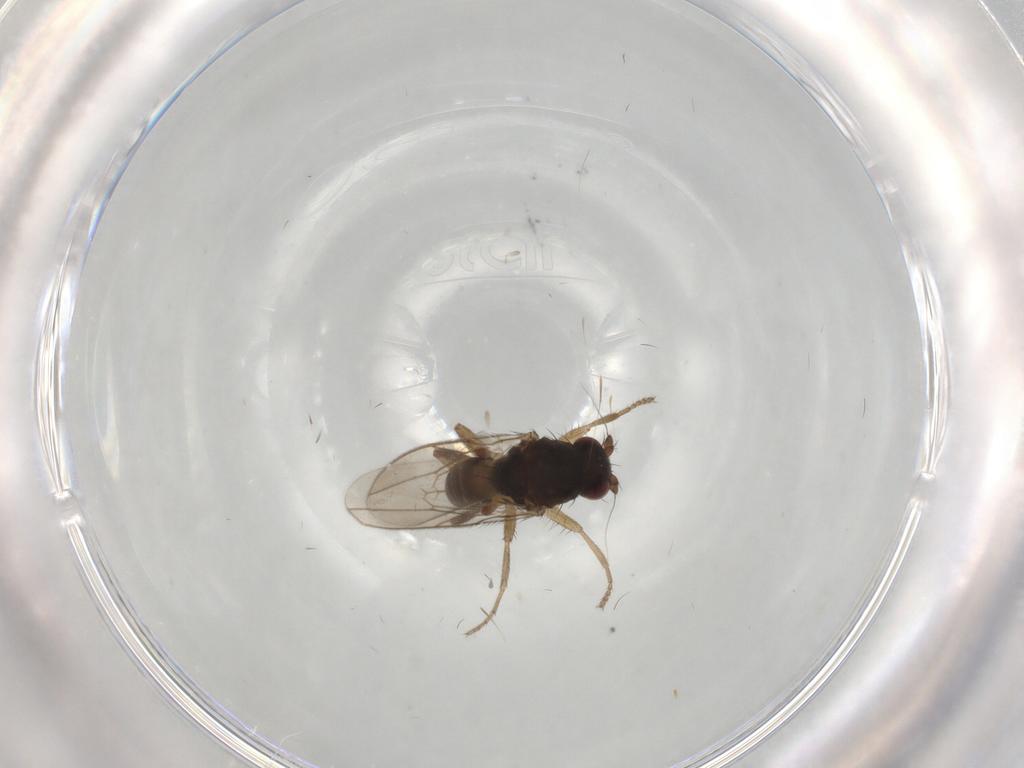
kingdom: Animalia
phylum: Arthropoda
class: Insecta
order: Diptera
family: Sphaeroceridae
